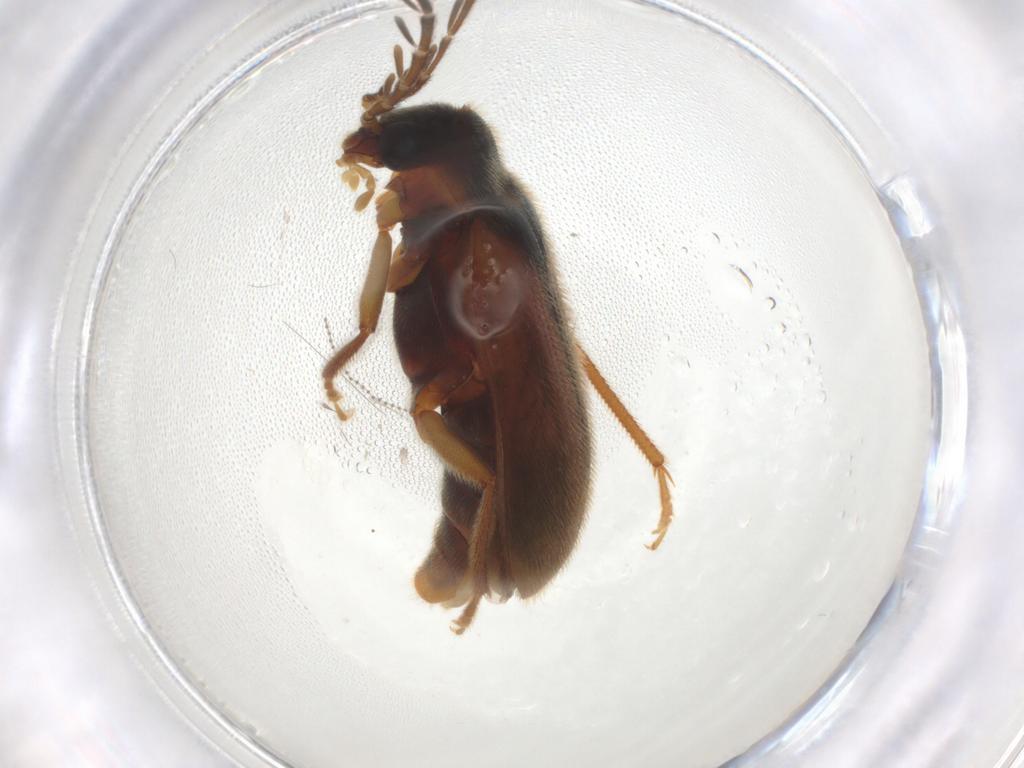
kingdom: Animalia
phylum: Arthropoda
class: Insecta
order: Coleoptera
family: Ptilodactylidae
